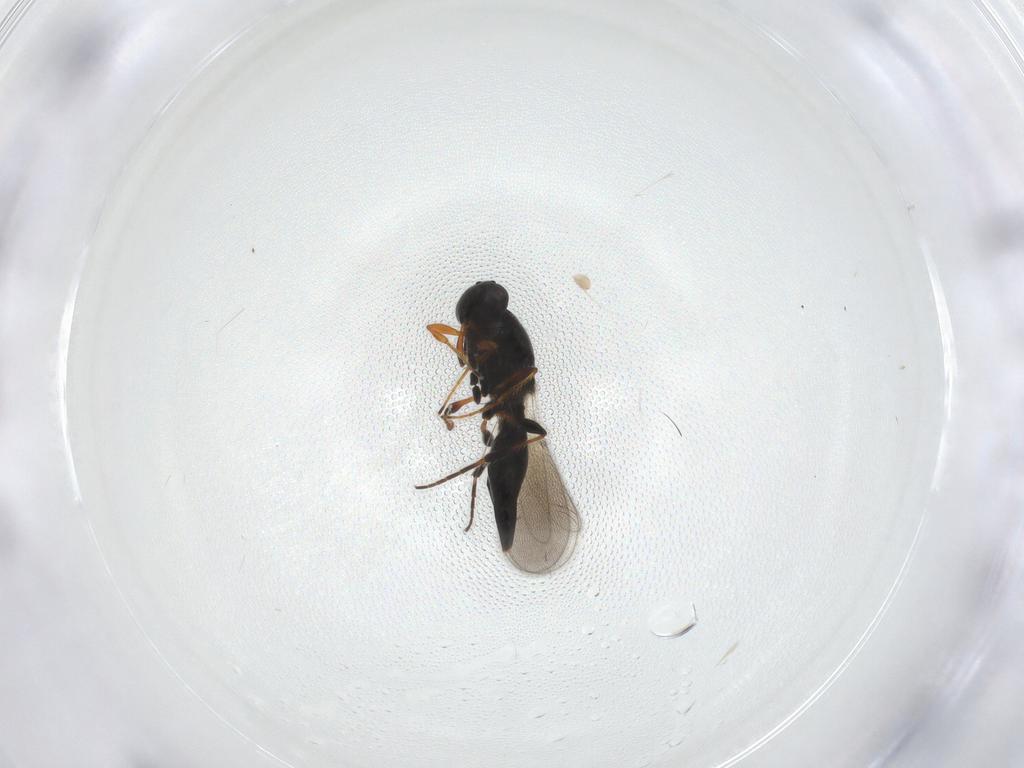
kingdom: Animalia
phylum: Arthropoda
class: Insecta
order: Hymenoptera
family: Platygastridae
